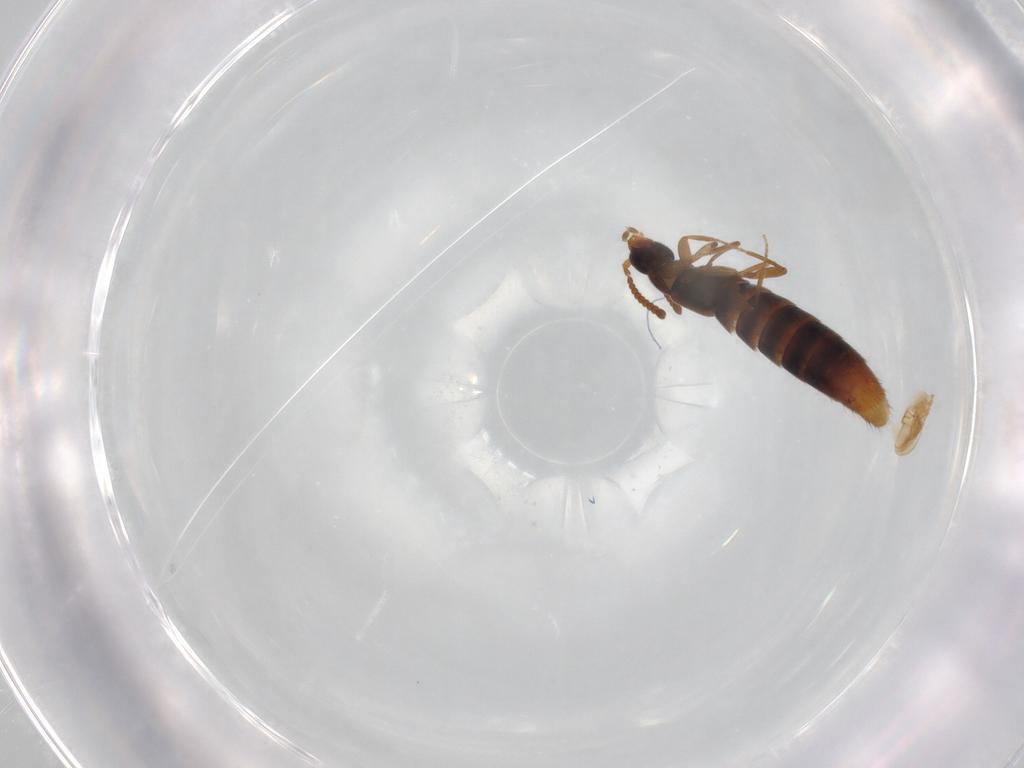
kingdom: Animalia
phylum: Arthropoda
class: Insecta
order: Coleoptera
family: Staphylinidae
